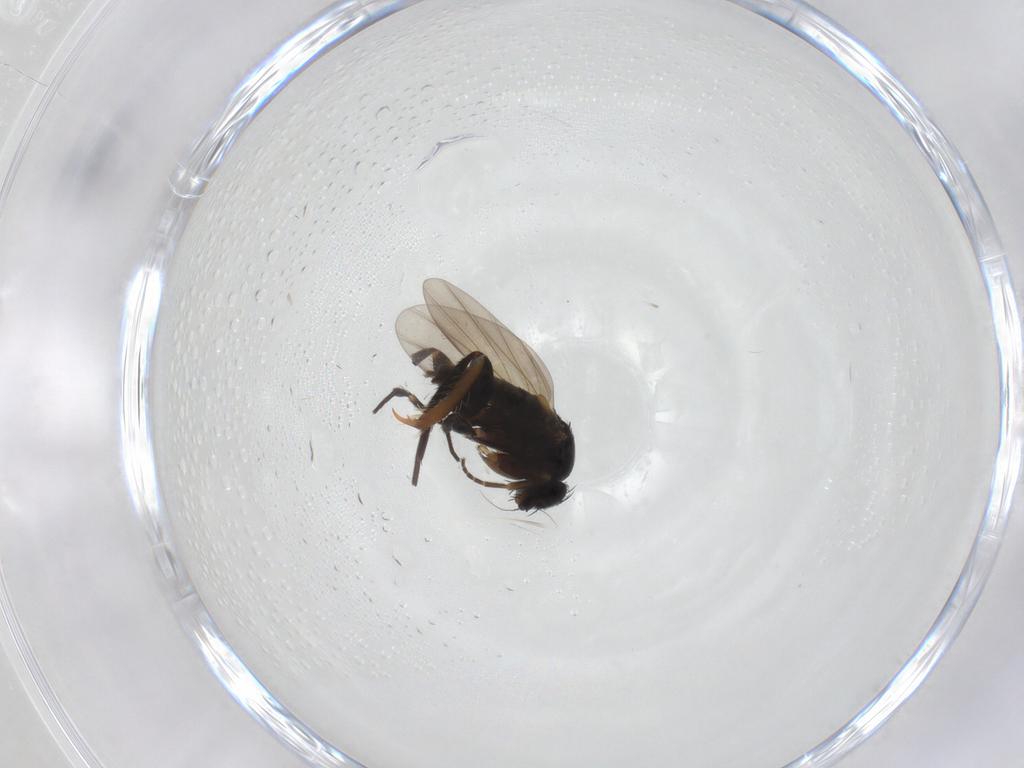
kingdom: Animalia
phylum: Arthropoda
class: Insecta
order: Diptera
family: Phoridae
